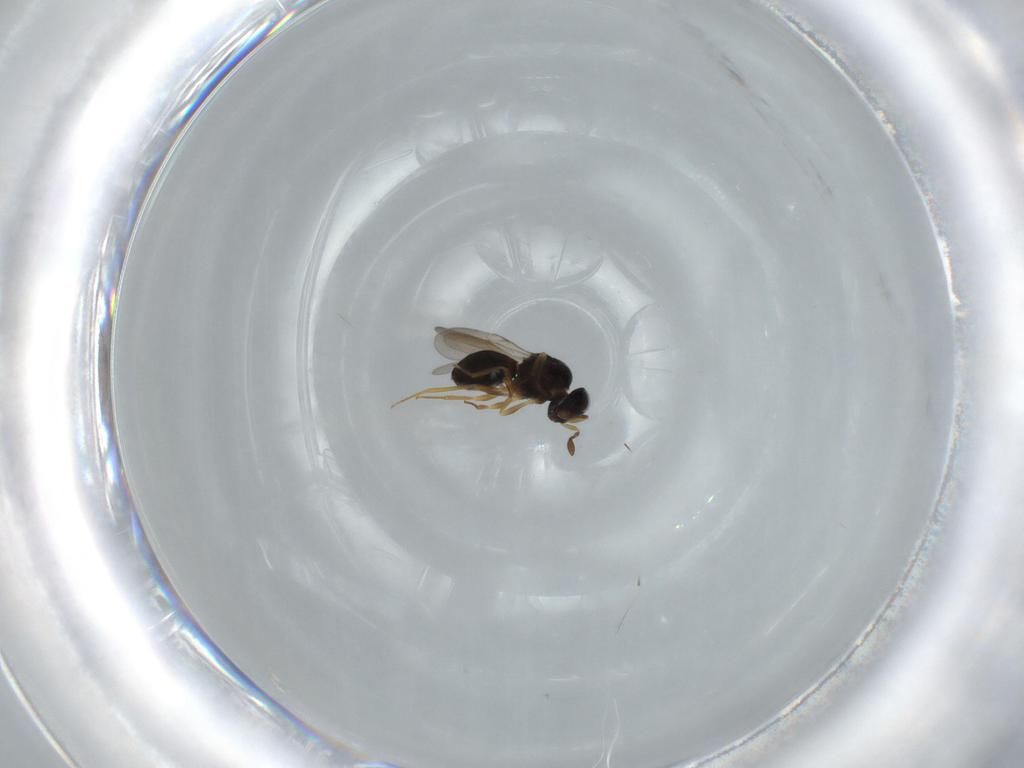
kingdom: Animalia
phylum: Arthropoda
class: Insecta
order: Hymenoptera
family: Scelionidae
